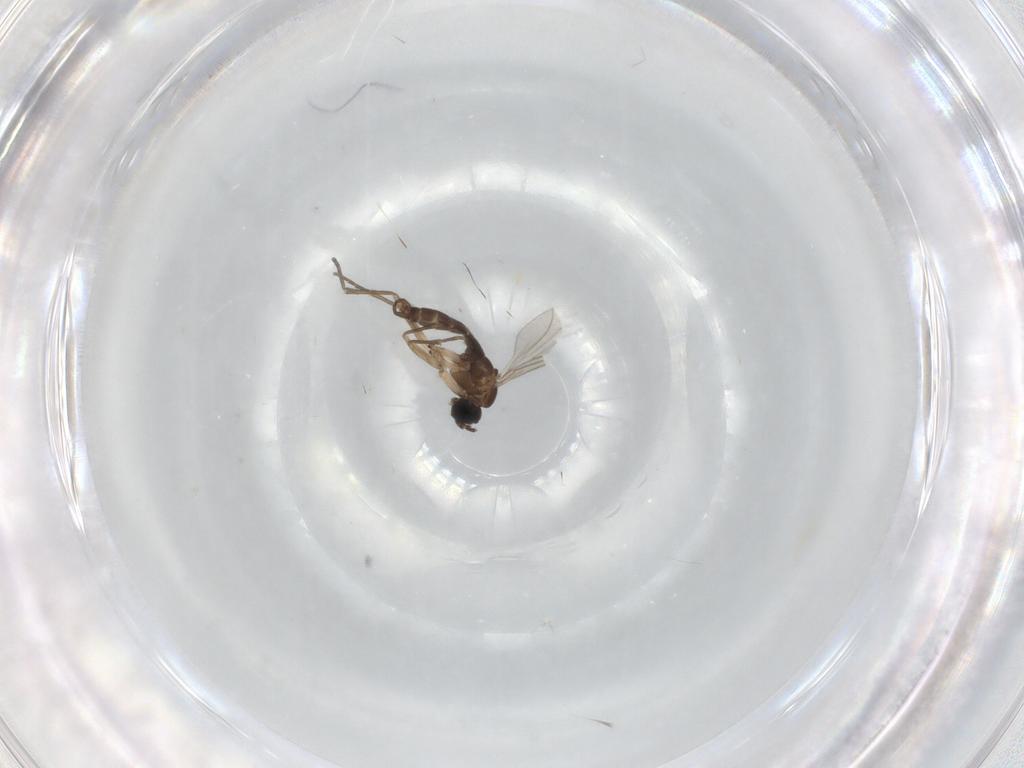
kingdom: Animalia
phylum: Arthropoda
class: Insecta
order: Diptera
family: Sciaridae
